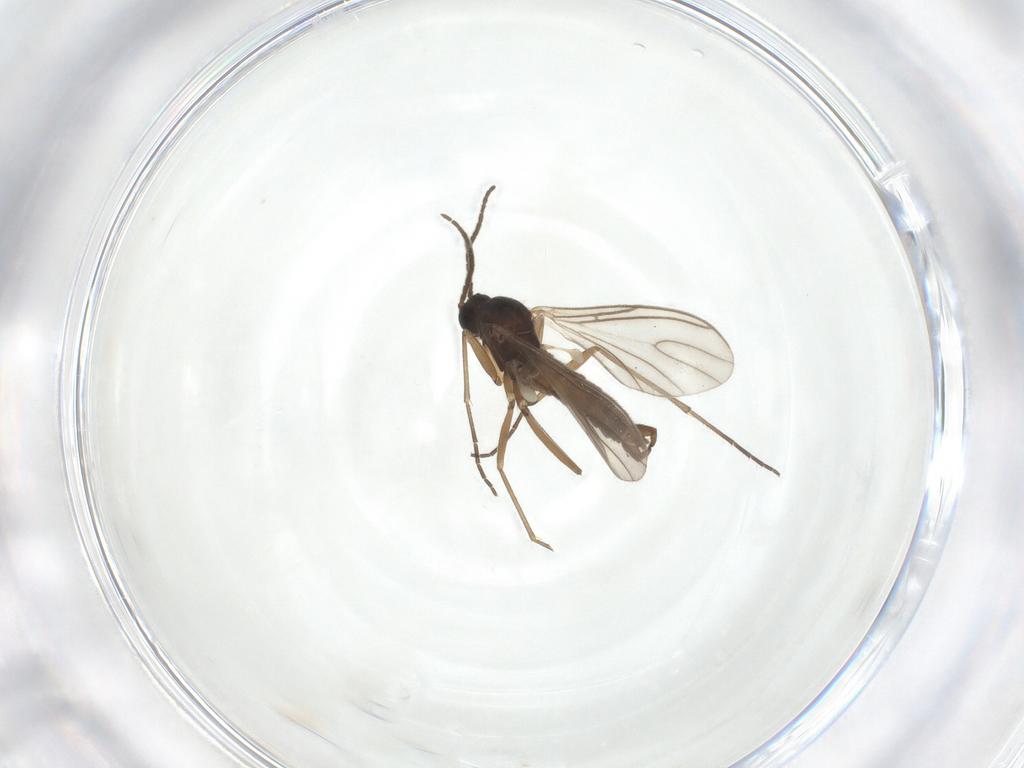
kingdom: Animalia
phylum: Arthropoda
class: Insecta
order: Diptera
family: Sciaridae
